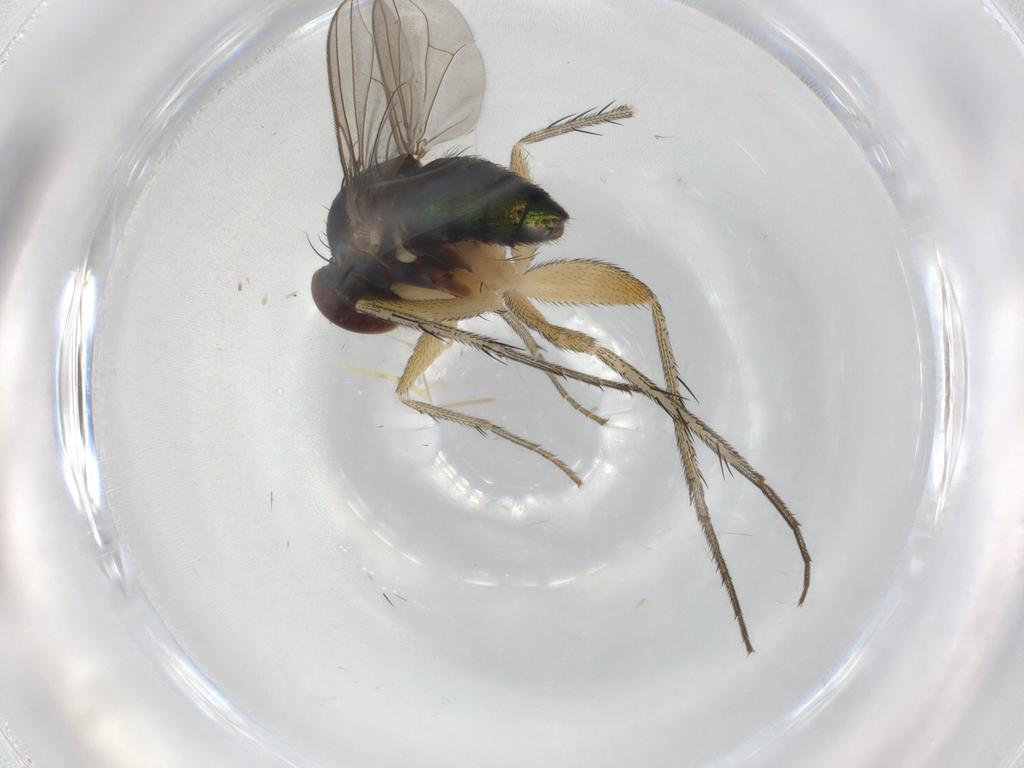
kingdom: Animalia
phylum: Arthropoda
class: Insecta
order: Diptera
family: Dolichopodidae
